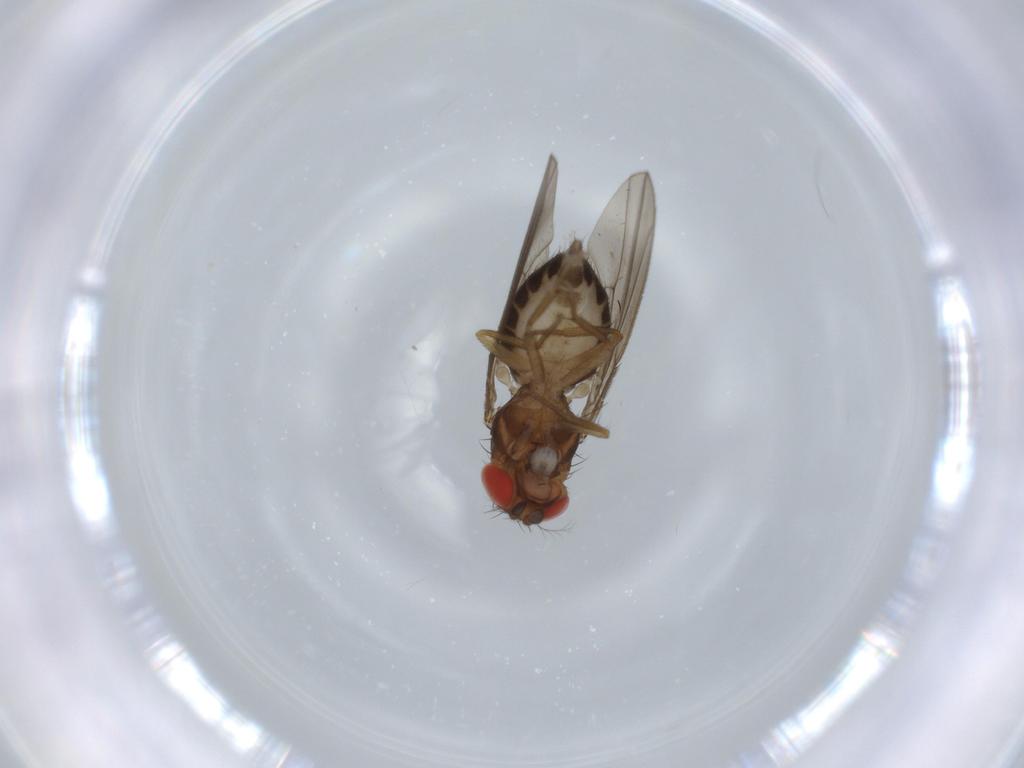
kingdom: Animalia
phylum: Arthropoda
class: Insecta
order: Diptera
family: Drosophilidae
